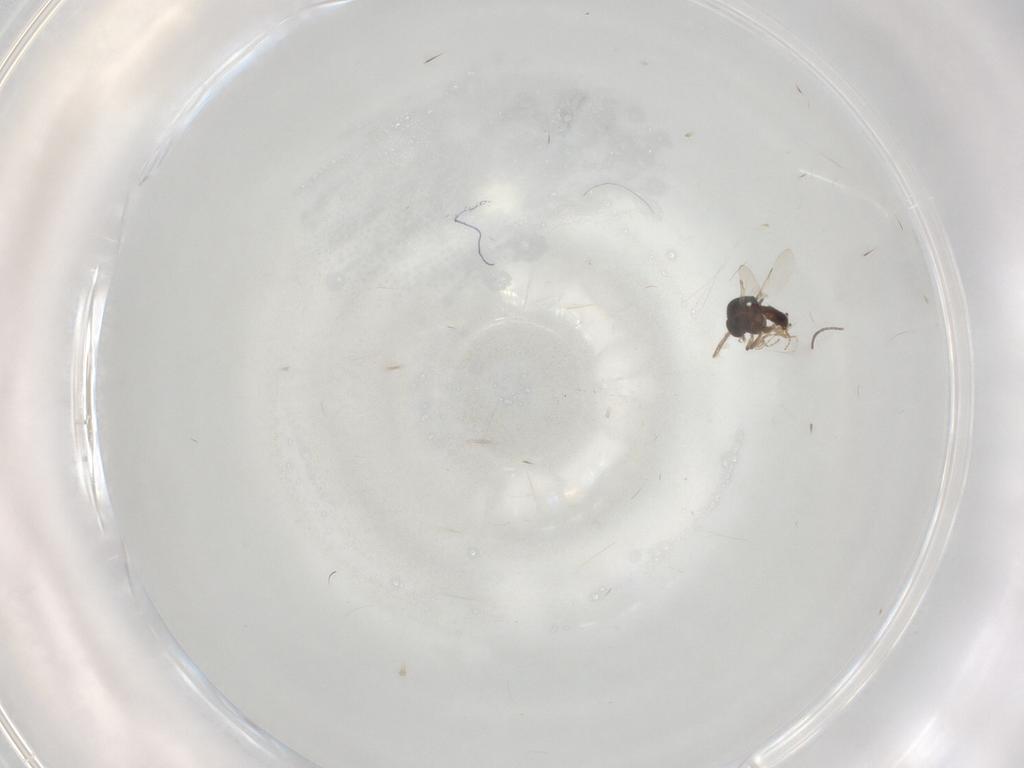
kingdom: Animalia
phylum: Arthropoda
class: Insecta
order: Diptera
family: Ceratopogonidae
